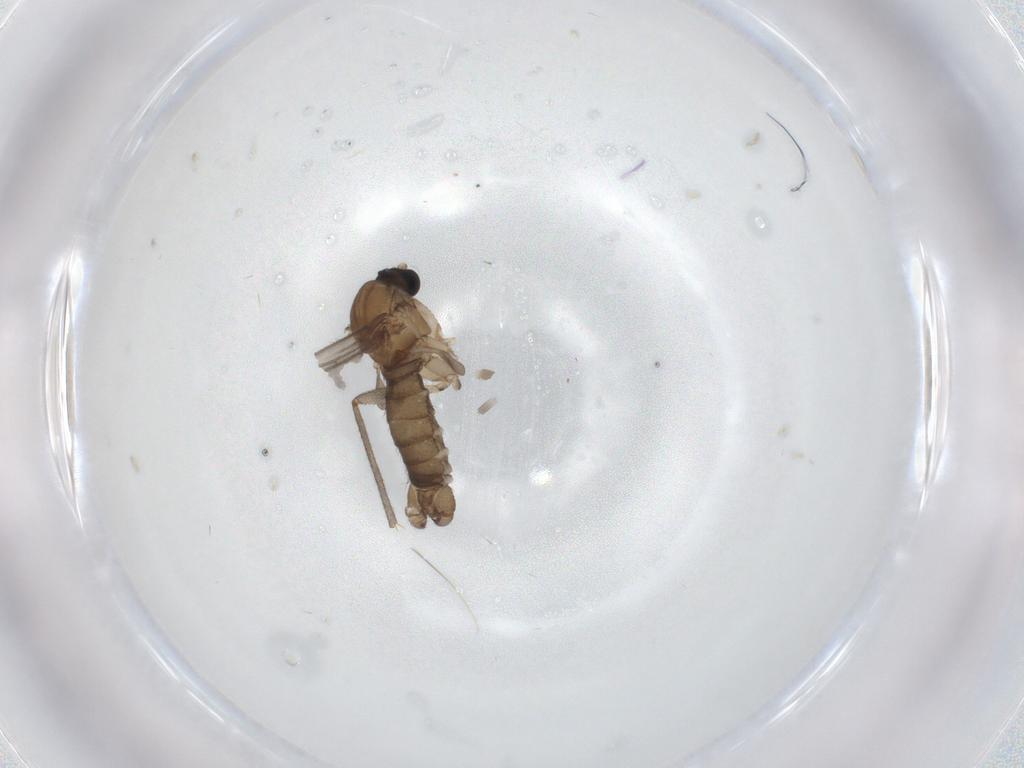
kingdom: Animalia
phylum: Arthropoda
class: Insecta
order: Diptera
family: Sciaridae
